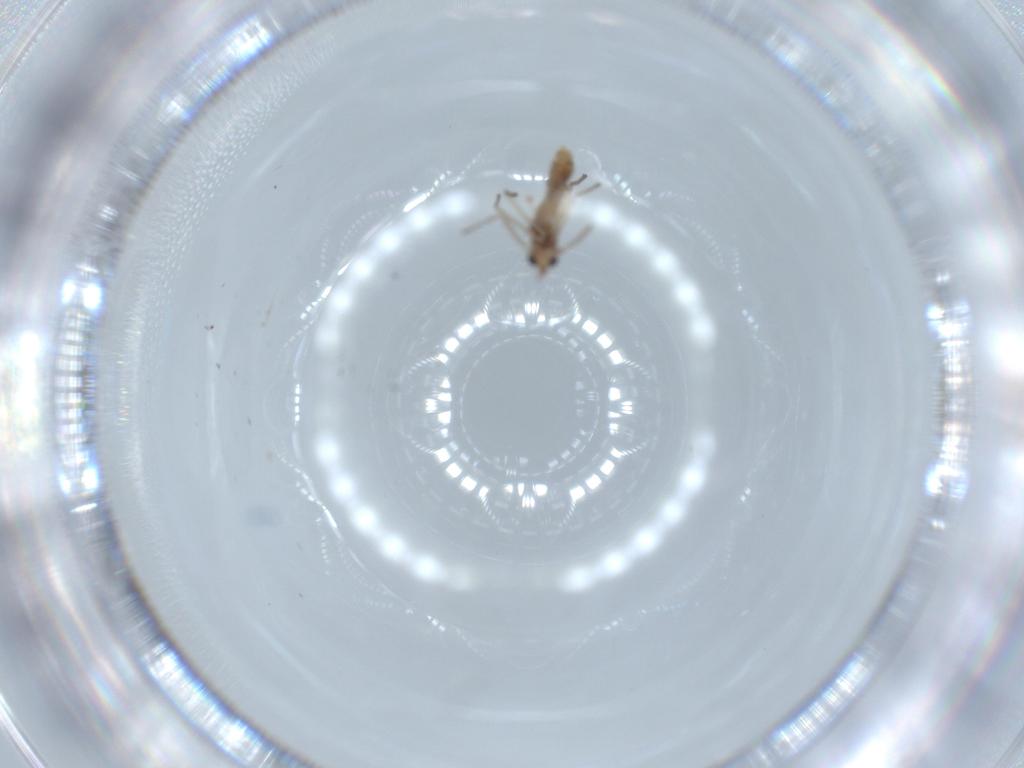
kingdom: Animalia
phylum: Arthropoda
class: Insecta
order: Diptera
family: Chironomidae
